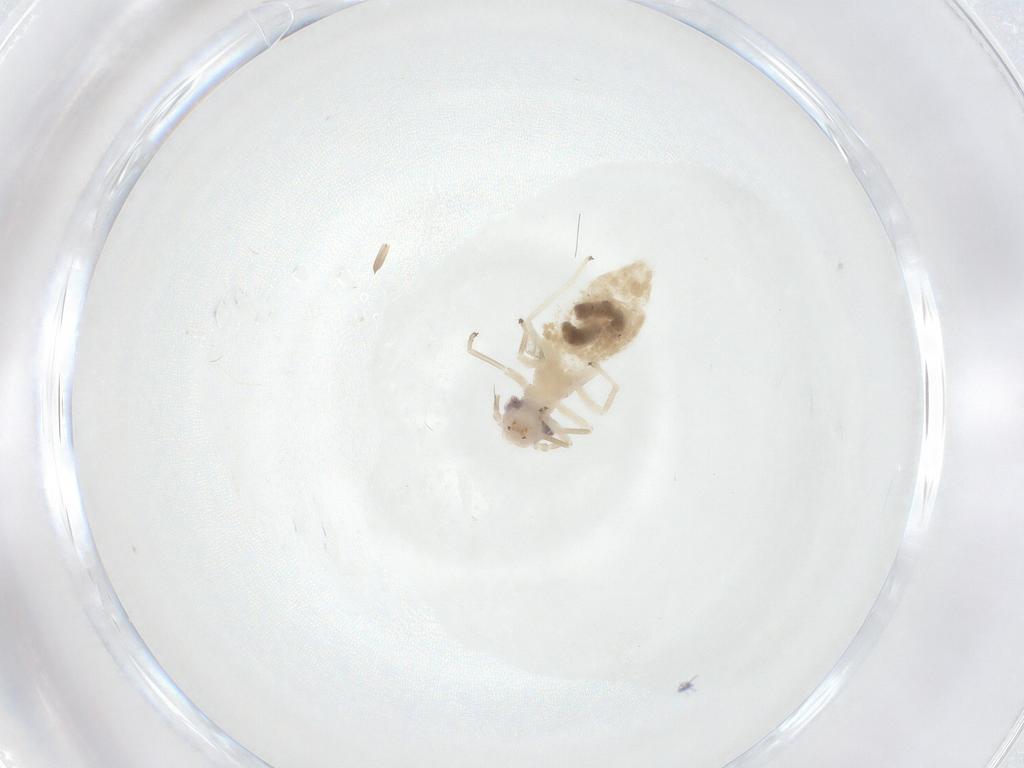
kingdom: Animalia
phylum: Arthropoda
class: Insecta
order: Psocodea
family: Caeciliusidae
